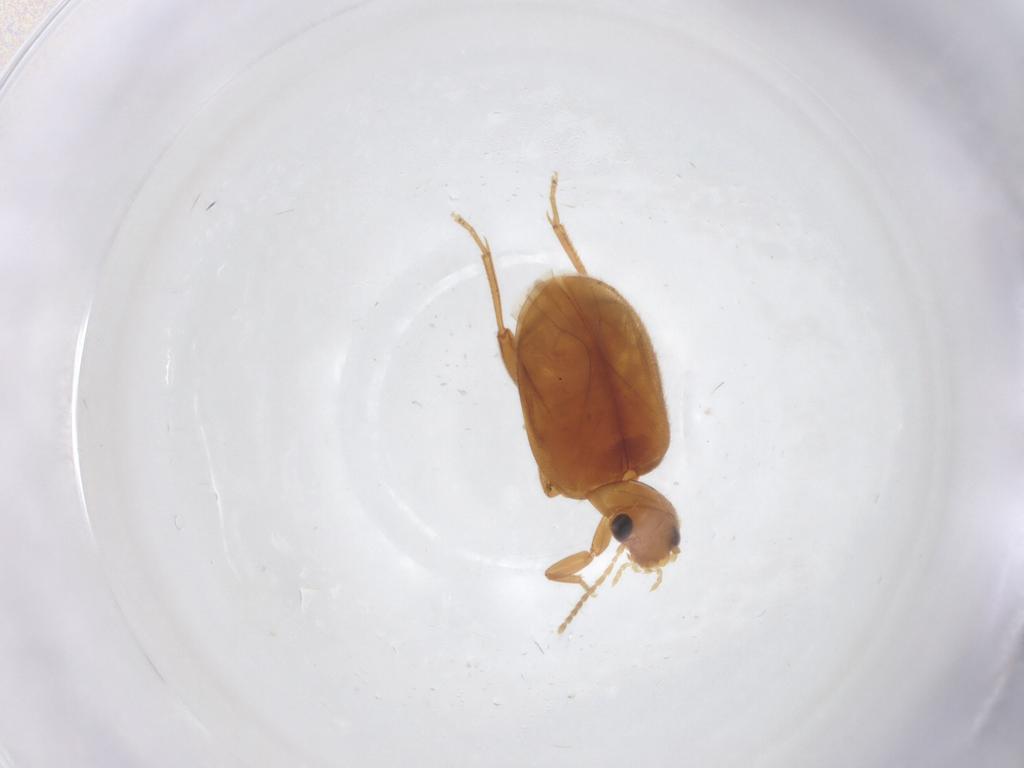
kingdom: Animalia
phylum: Arthropoda
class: Insecta
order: Coleoptera
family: Scirtidae
